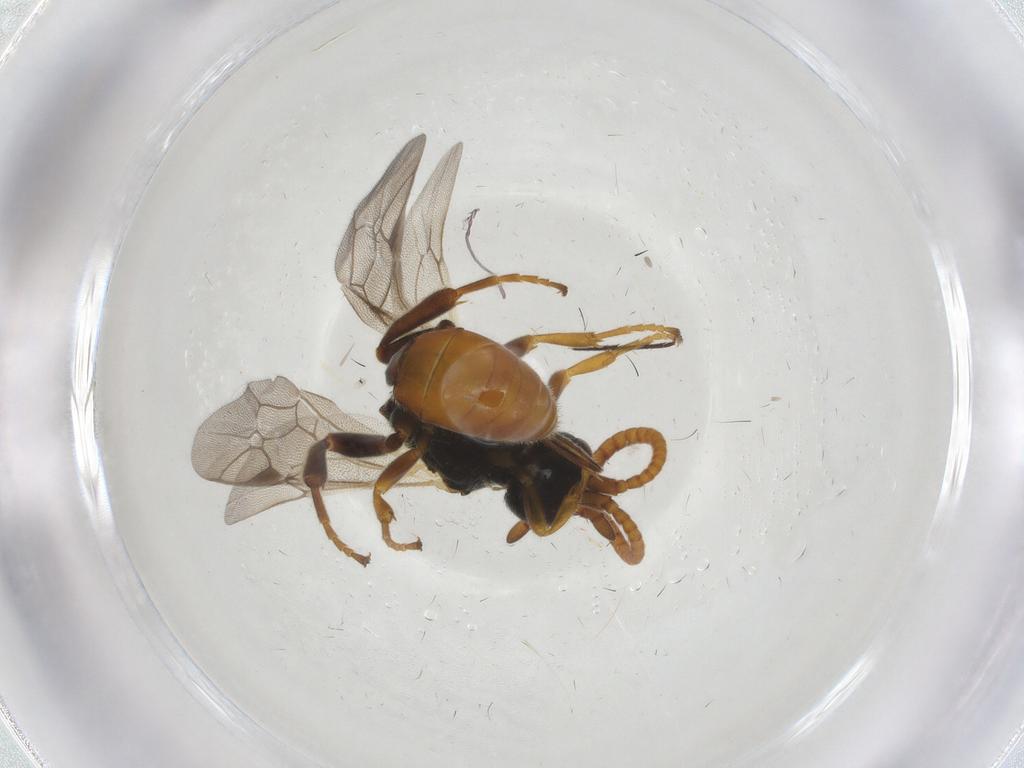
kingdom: Animalia
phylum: Arthropoda
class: Insecta
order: Hymenoptera
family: Ichneumonidae
